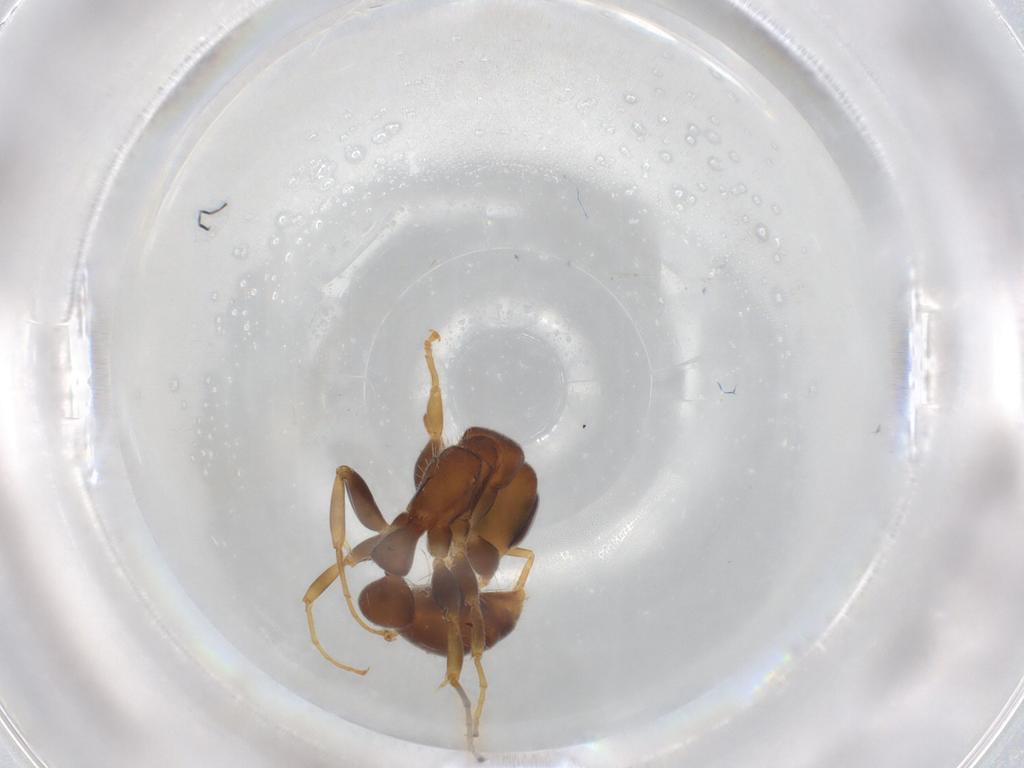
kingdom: Animalia
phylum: Arthropoda
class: Insecta
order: Hymenoptera
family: Formicidae
